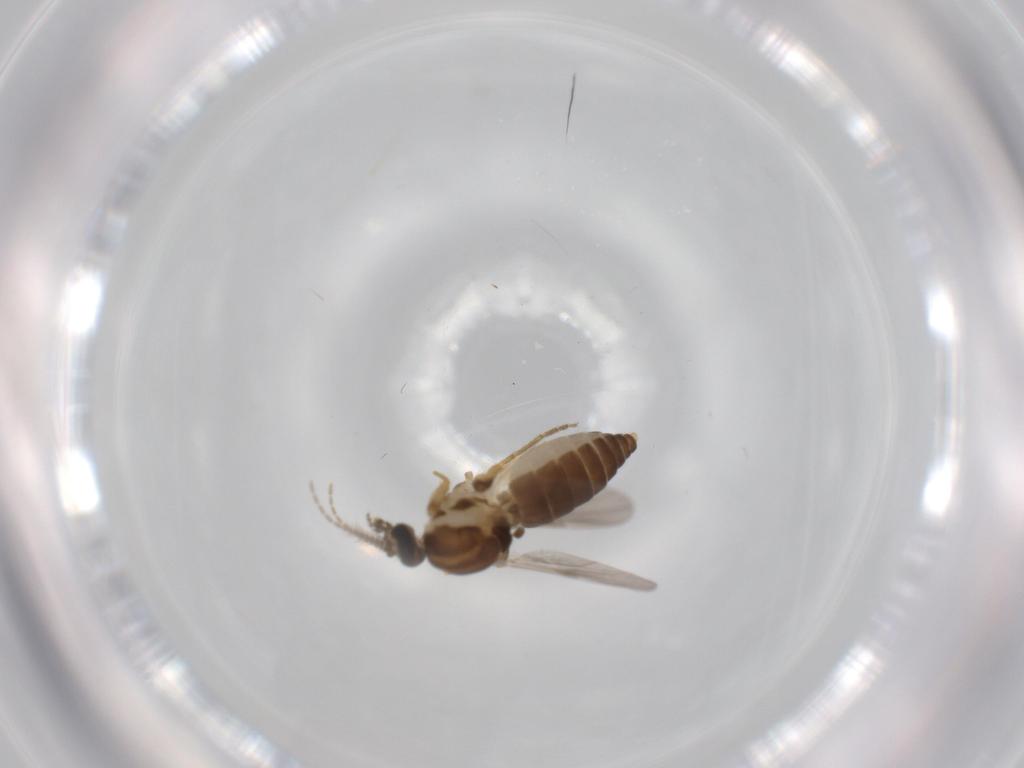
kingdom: Animalia
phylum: Arthropoda
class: Insecta
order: Diptera
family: Ceratopogonidae
